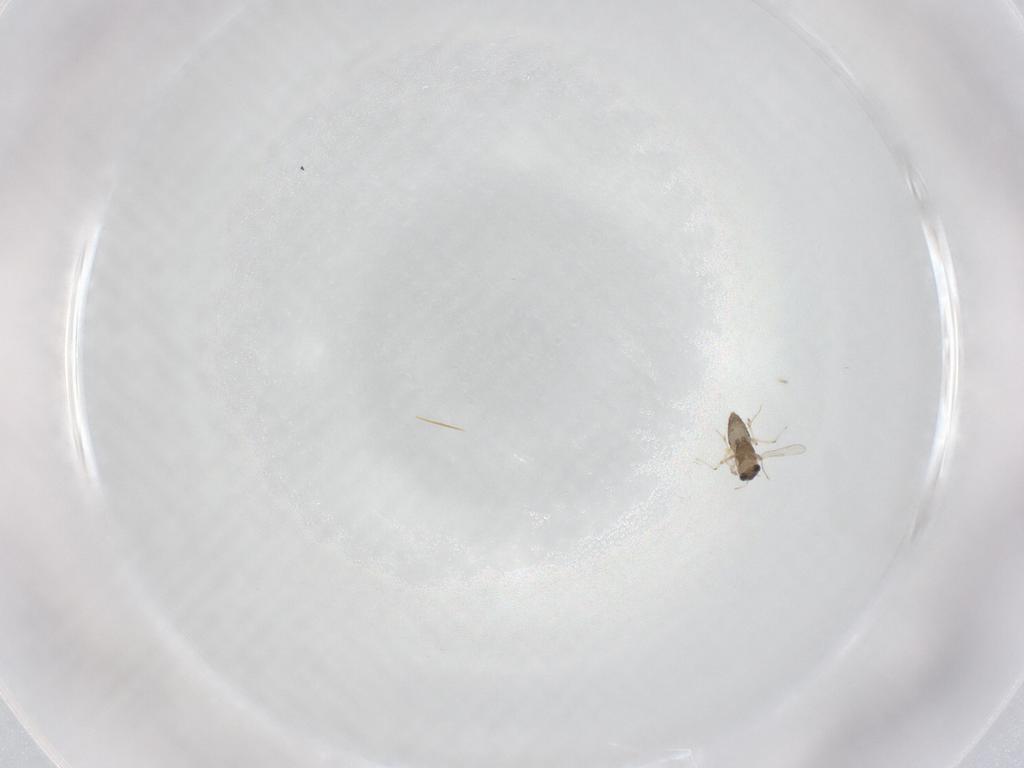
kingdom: Animalia
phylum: Arthropoda
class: Insecta
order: Diptera
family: Chironomidae
